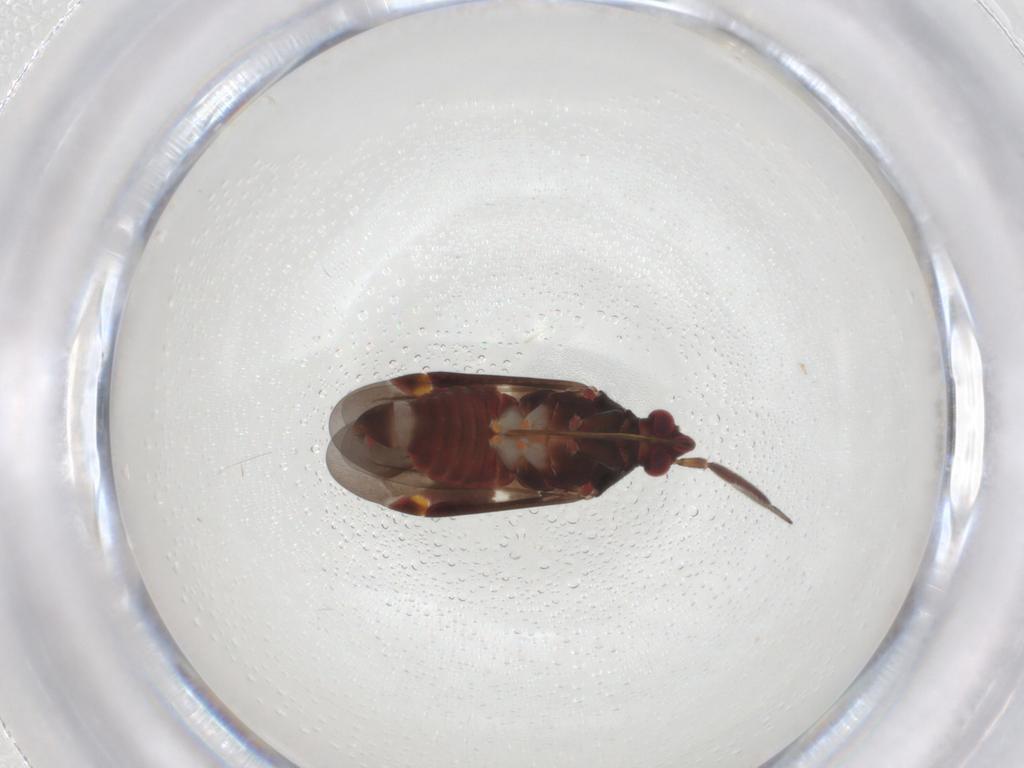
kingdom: Animalia
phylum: Arthropoda
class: Insecta
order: Hemiptera
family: Miridae
